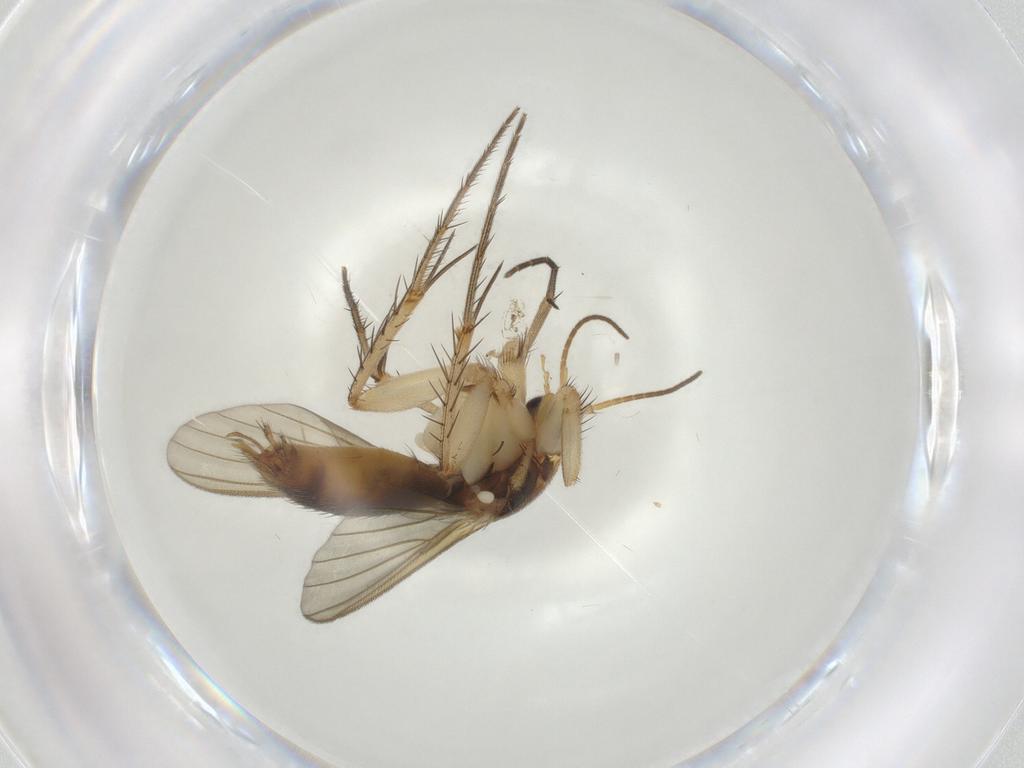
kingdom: Animalia
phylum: Arthropoda
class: Insecta
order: Diptera
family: Mycetophilidae
